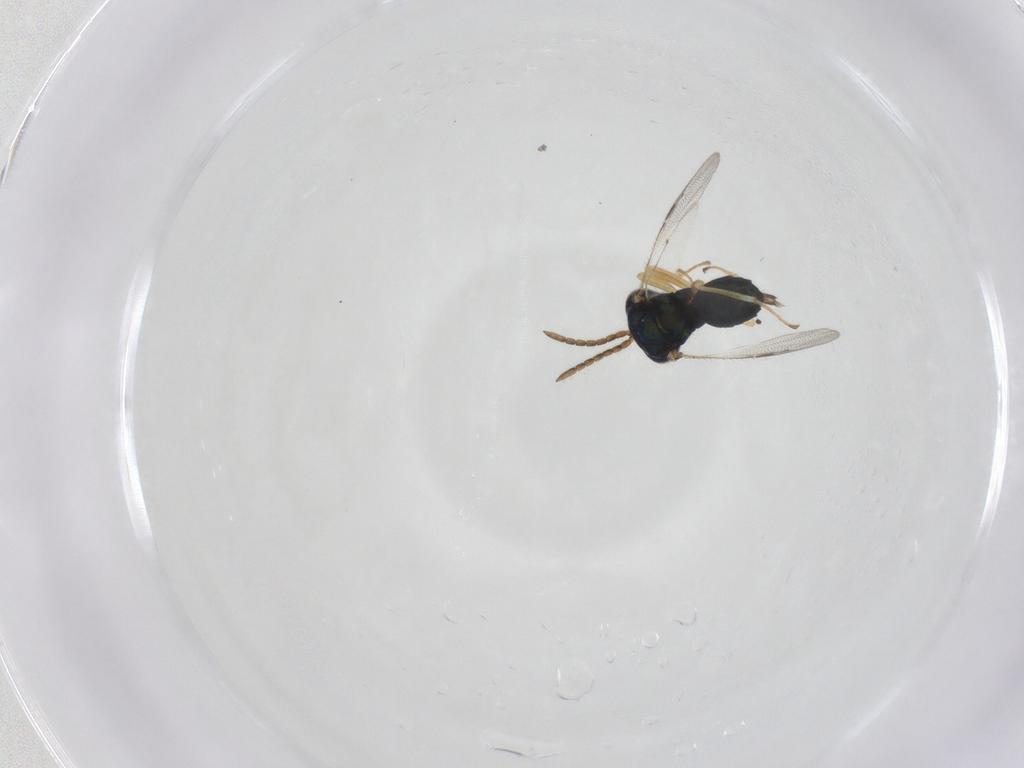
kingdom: Animalia
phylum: Arthropoda
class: Insecta
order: Hymenoptera
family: Pteromalidae
